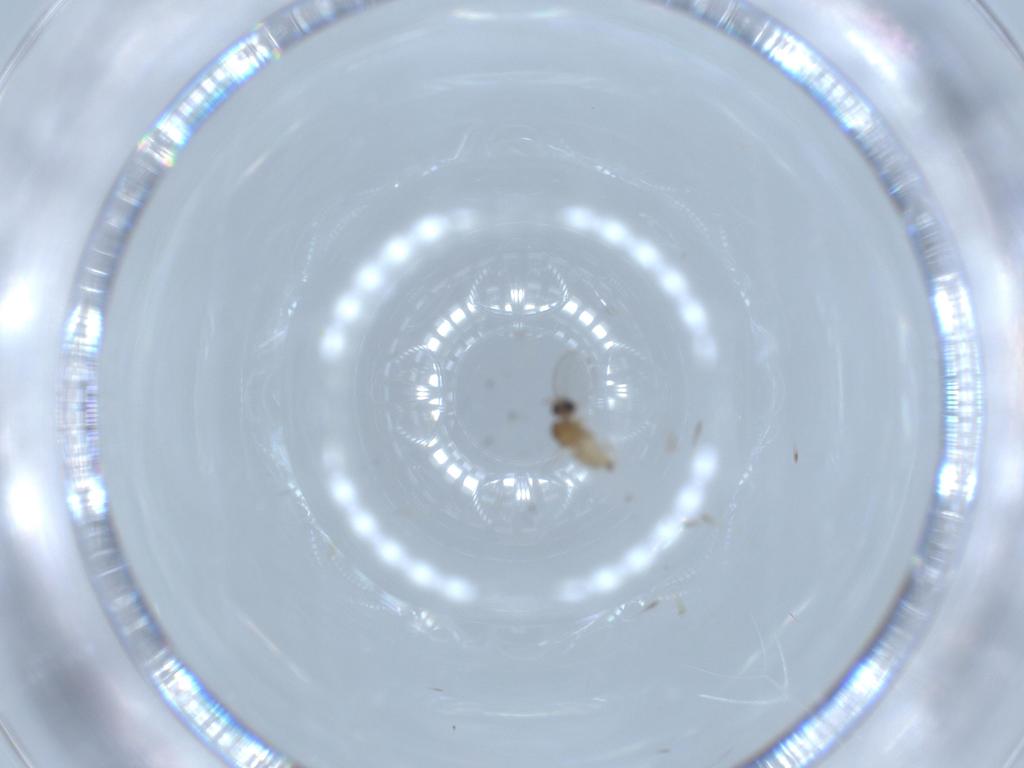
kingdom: Animalia
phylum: Arthropoda
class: Insecta
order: Diptera
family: Cecidomyiidae
